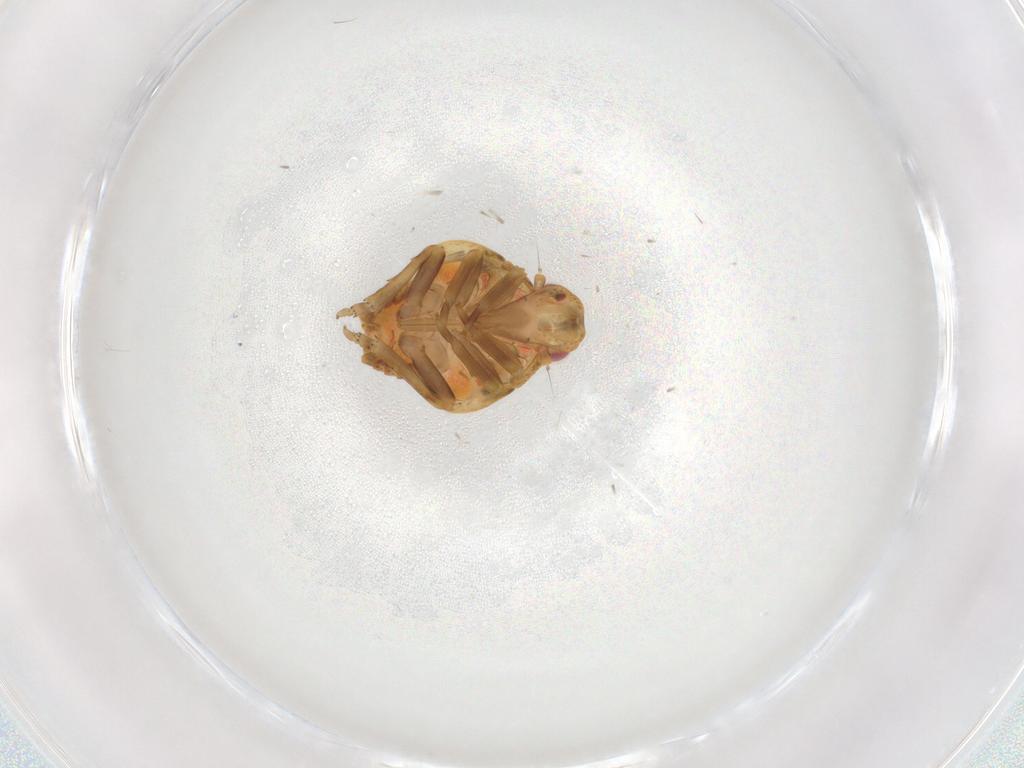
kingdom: Animalia
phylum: Arthropoda
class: Insecta
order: Hemiptera
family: Flatidae
